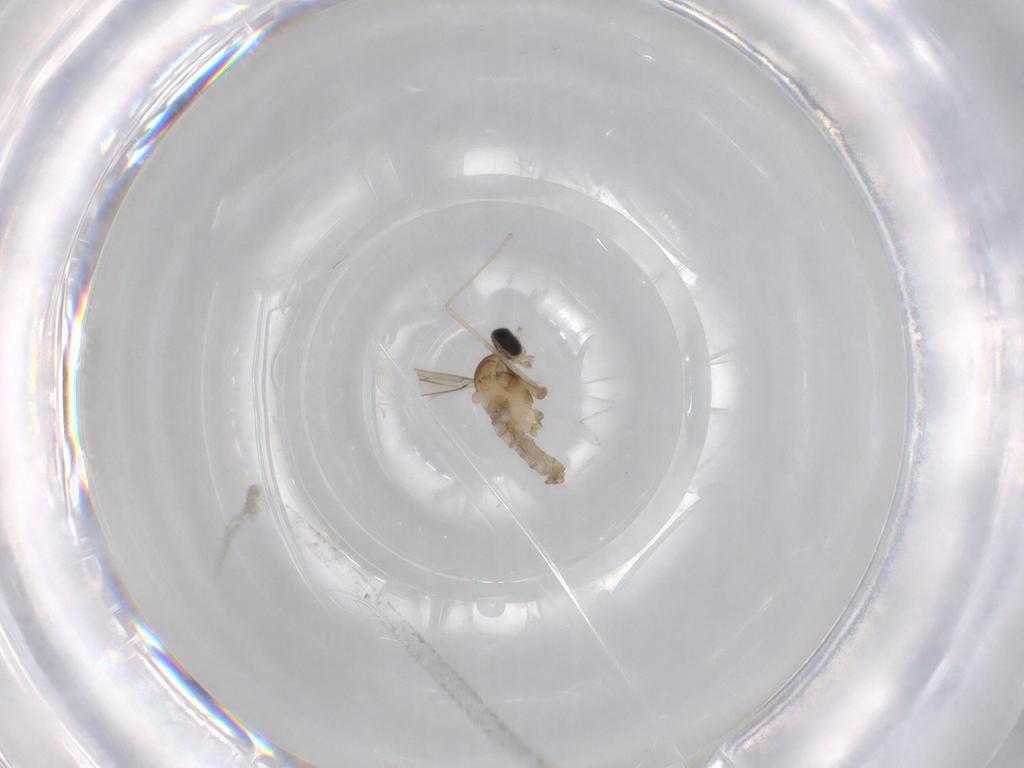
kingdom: Animalia
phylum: Arthropoda
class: Insecta
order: Diptera
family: Cecidomyiidae
